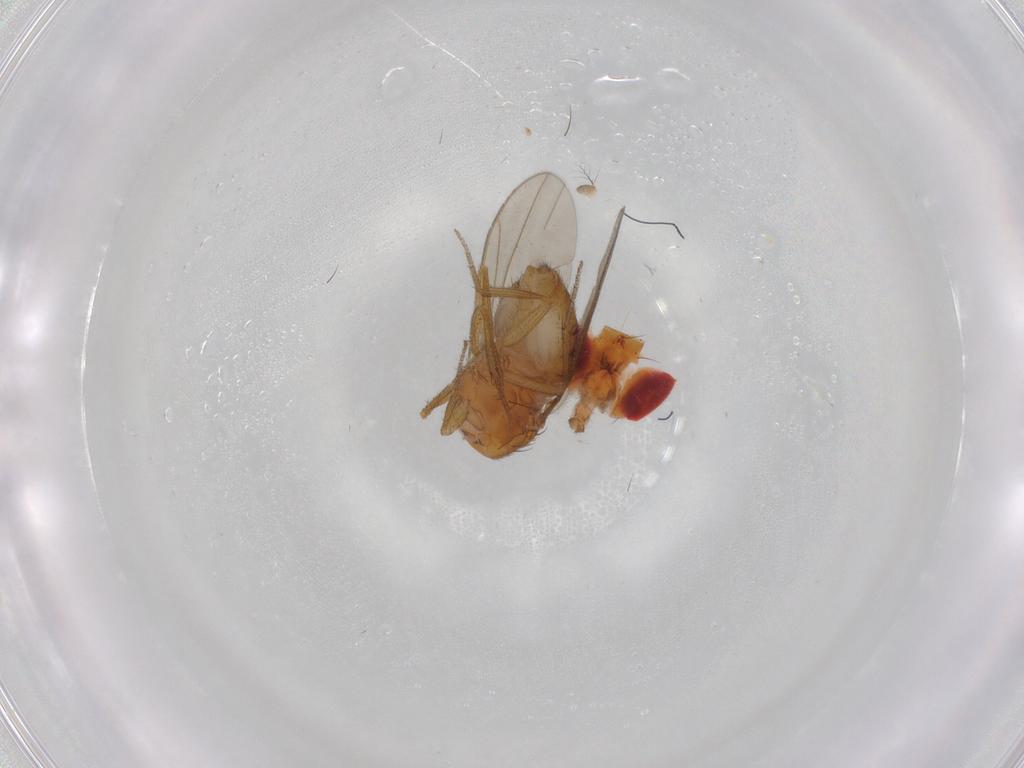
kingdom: Animalia
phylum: Arthropoda
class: Insecta
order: Diptera
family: Drosophilidae
